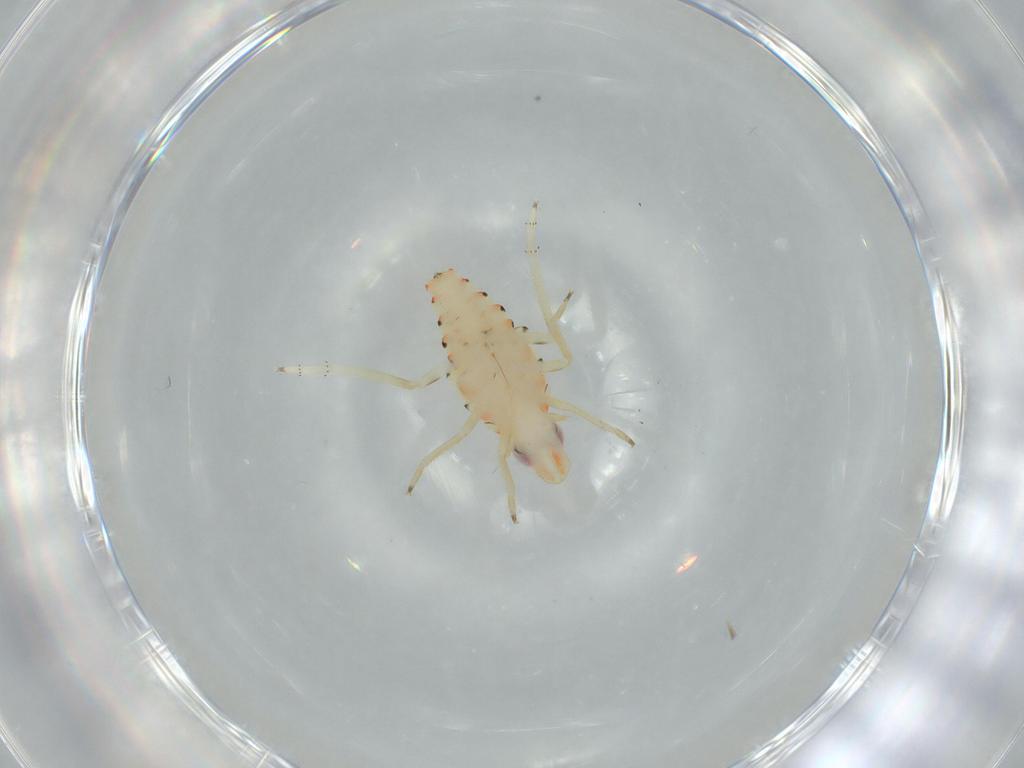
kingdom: Animalia
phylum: Arthropoda
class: Insecta
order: Hemiptera
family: Tropiduchidae
